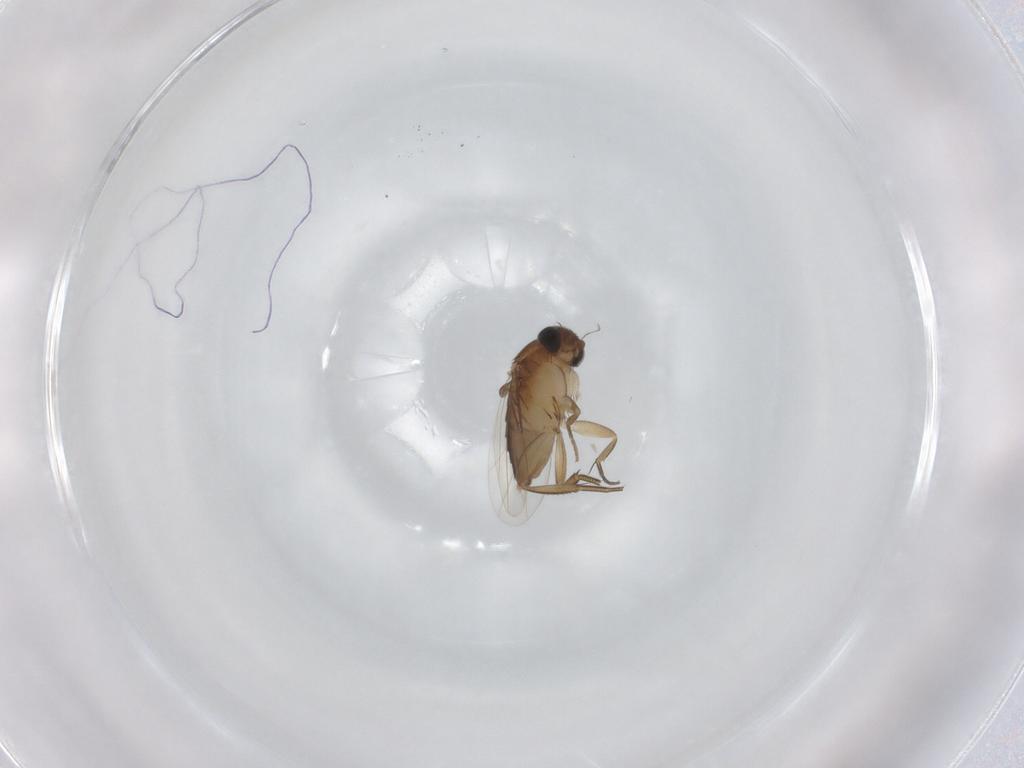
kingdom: Animalia
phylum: Arthropoda
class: Insecta
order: Diptera
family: Phoridae
